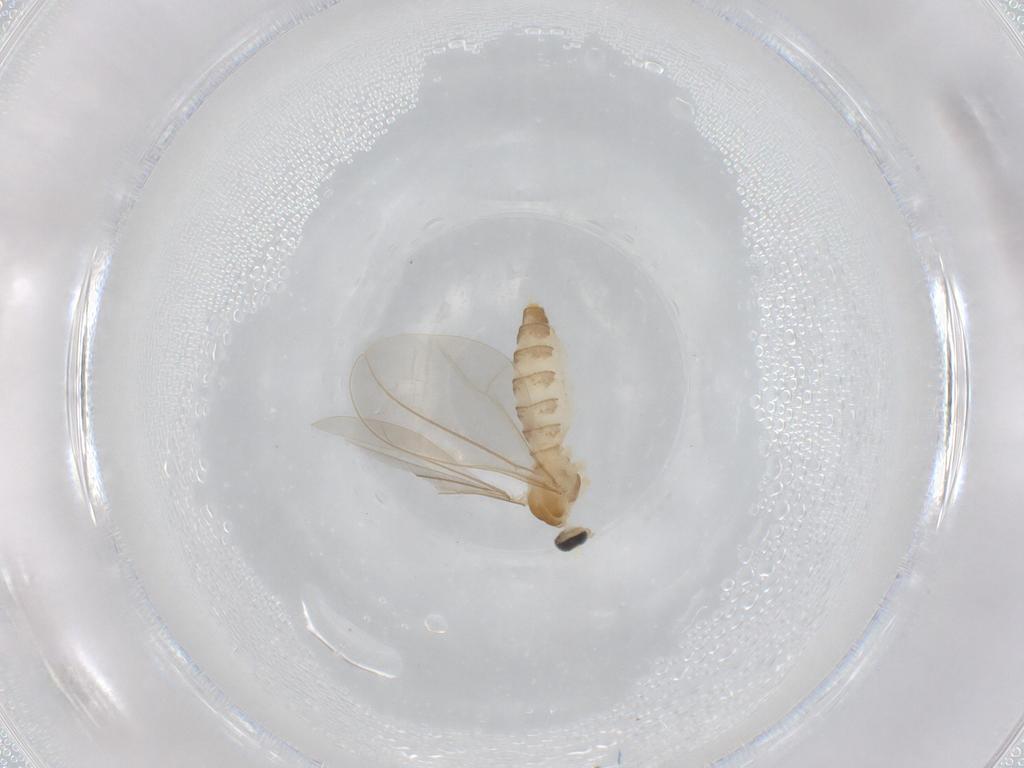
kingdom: Animalia
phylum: Arthropoda
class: Insecta
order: Diptera
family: Cecidomyiidae
